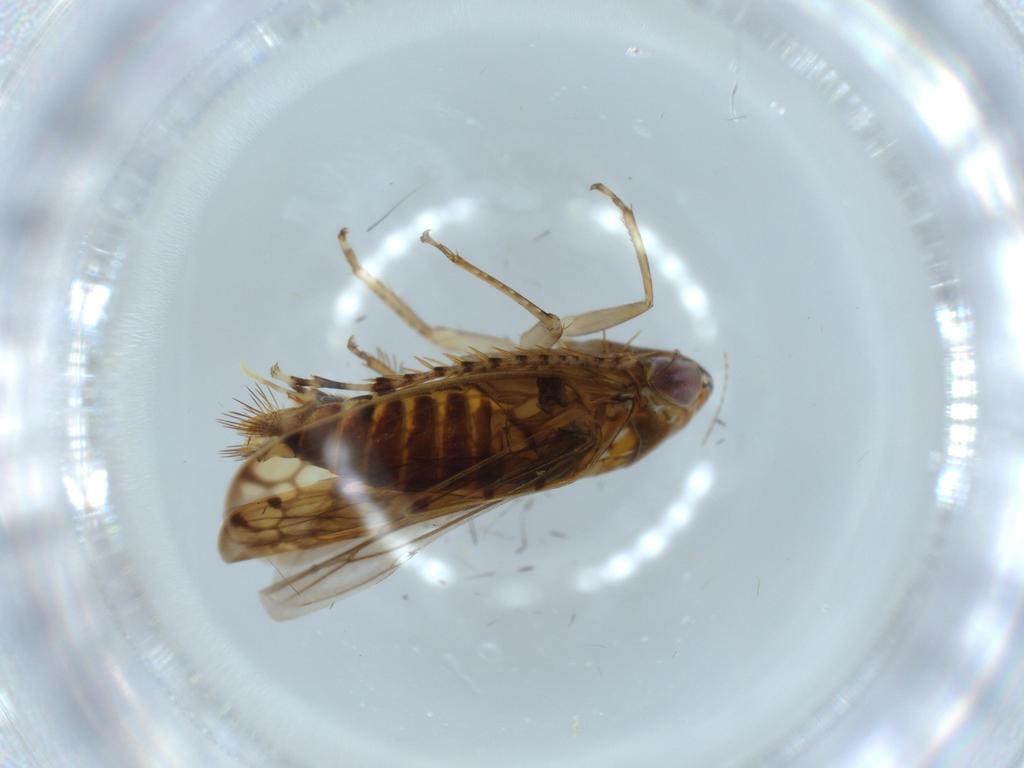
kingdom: Animalia
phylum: Arthropoda
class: Insecta
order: Hemiptera
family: Cicadellidae
